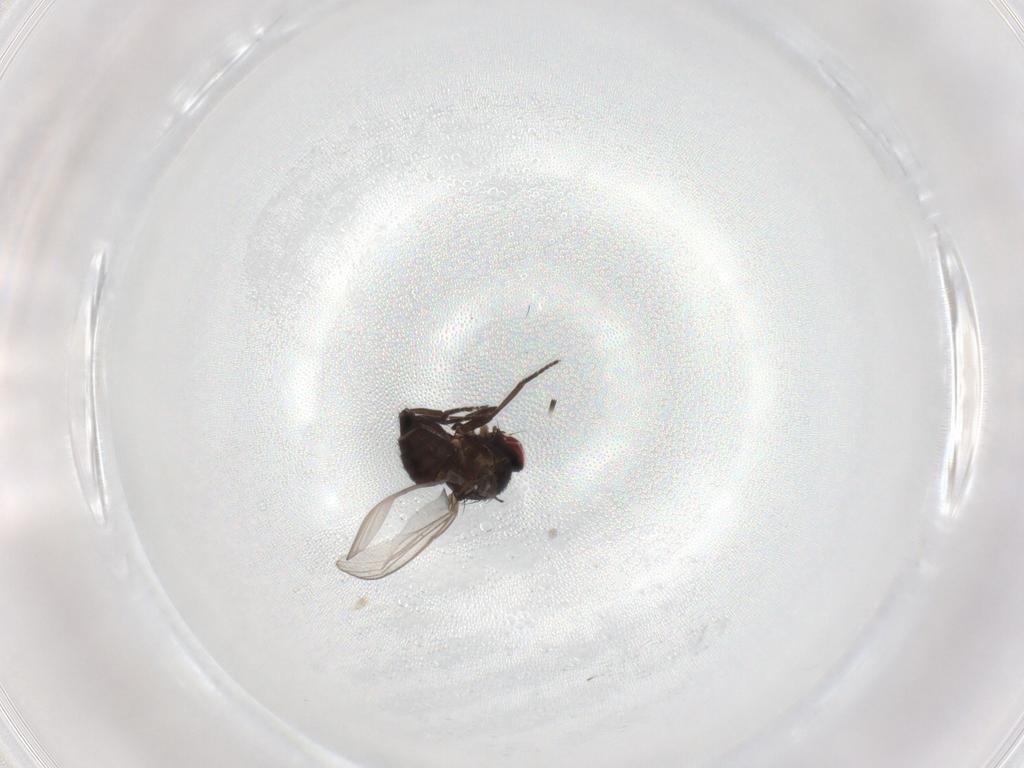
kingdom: Animalia
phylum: Arthropoda
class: Insecta
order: Diptera
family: Agromyzidae
